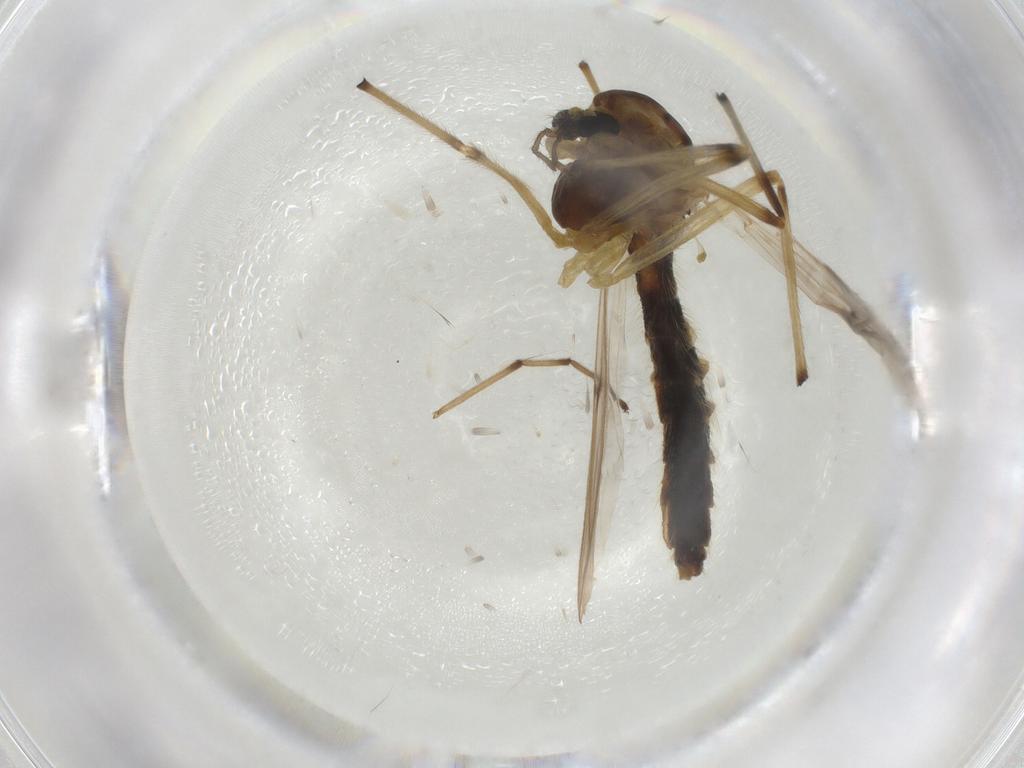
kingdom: Animalia
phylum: Arthropoda
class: Insecta
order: Diptera
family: Chironomidae
